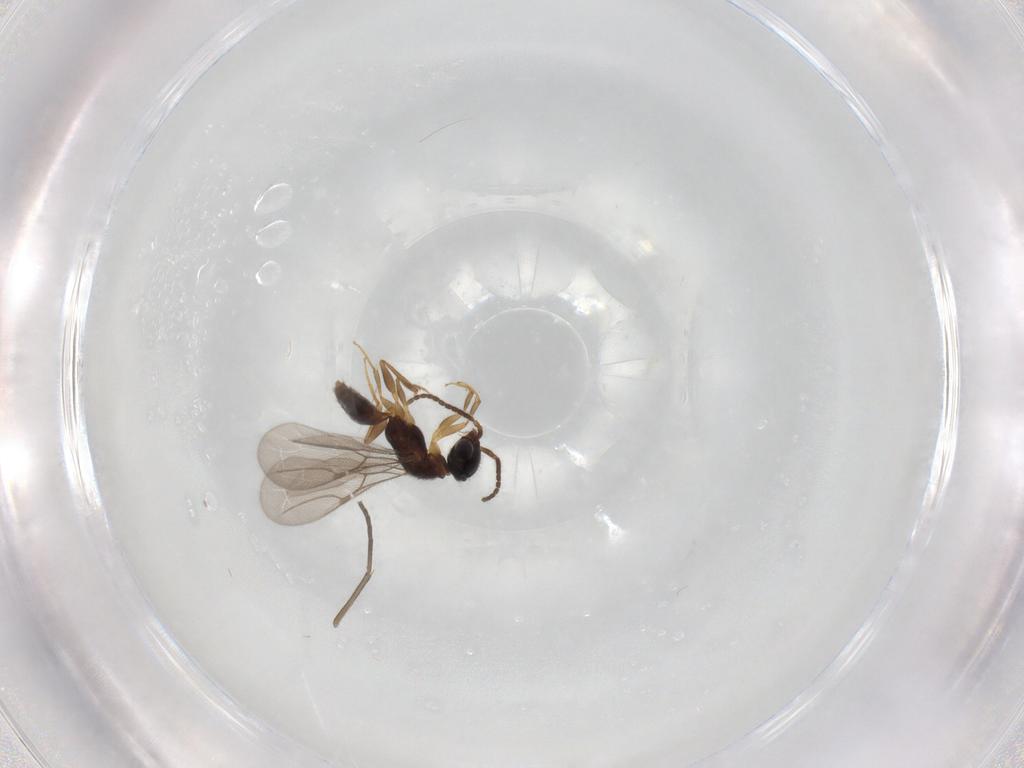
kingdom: Animalia
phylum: Arthropoda
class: Insecta
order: Hymenoptera
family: Bethylidae
